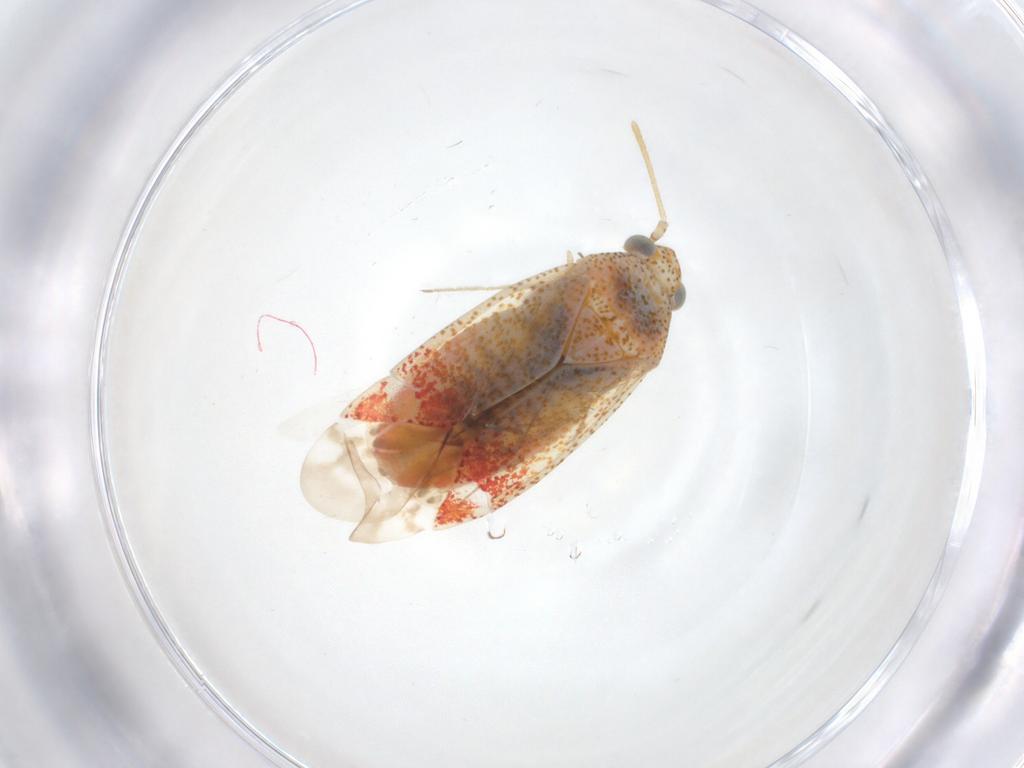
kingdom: Animalia
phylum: Arthropoda
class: Insecta
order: Hemiptera
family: Miridae
